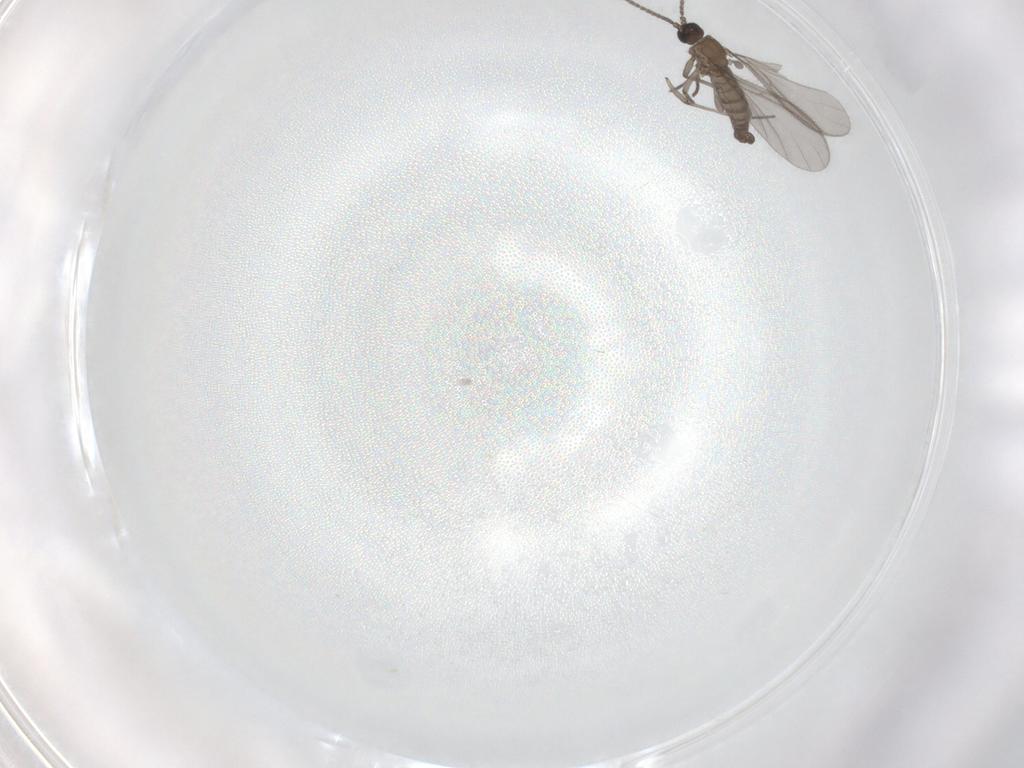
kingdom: Animalia
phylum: Arthropoda
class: Insecta
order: Diptera
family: Sciaridae
